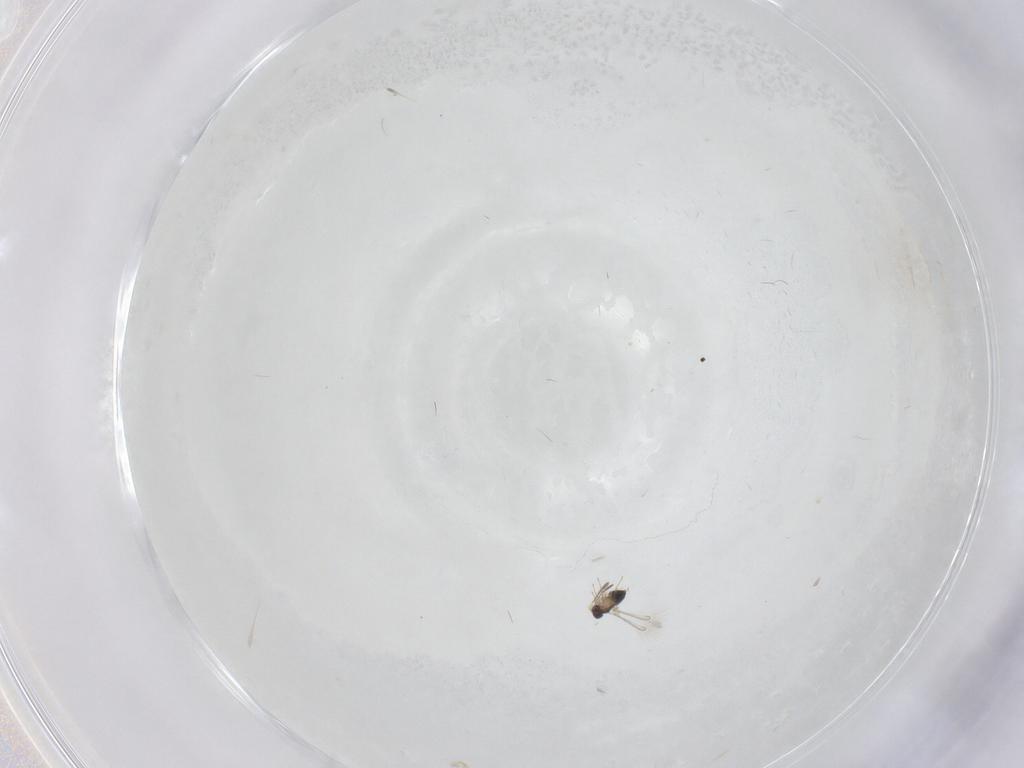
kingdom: Animalia
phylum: Arthropoda
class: Insecta
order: Hymenoptera
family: Mymaridae
